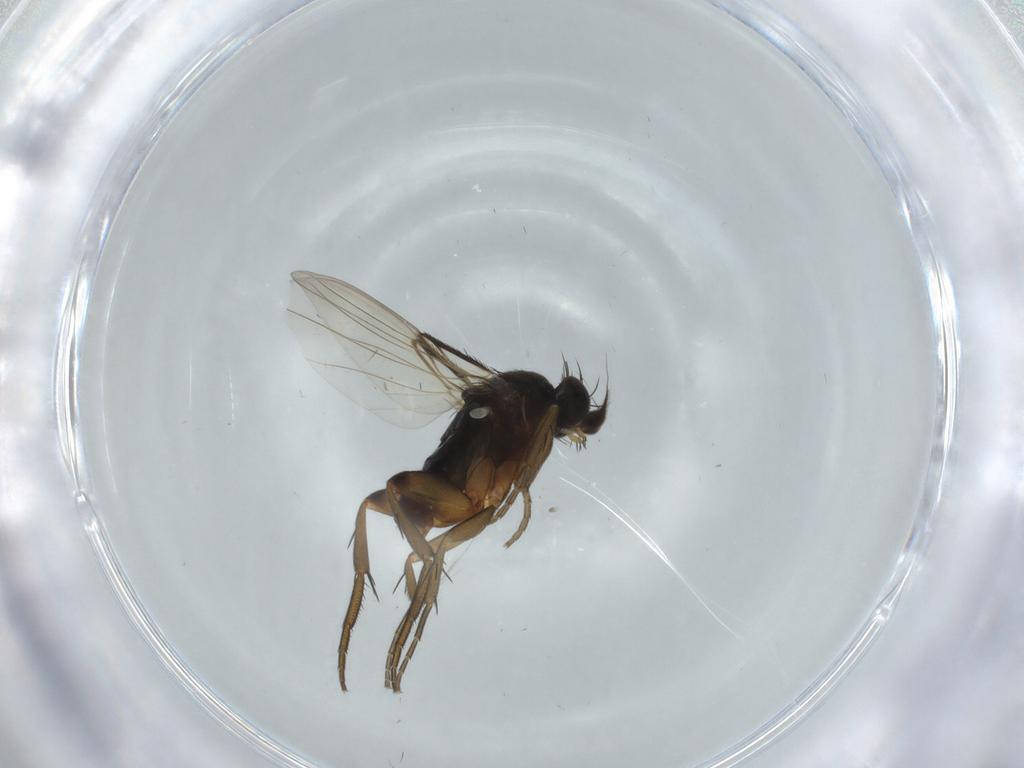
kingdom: Animalia
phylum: Arthropoda
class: Insecta
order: Diptera
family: Phoridae
